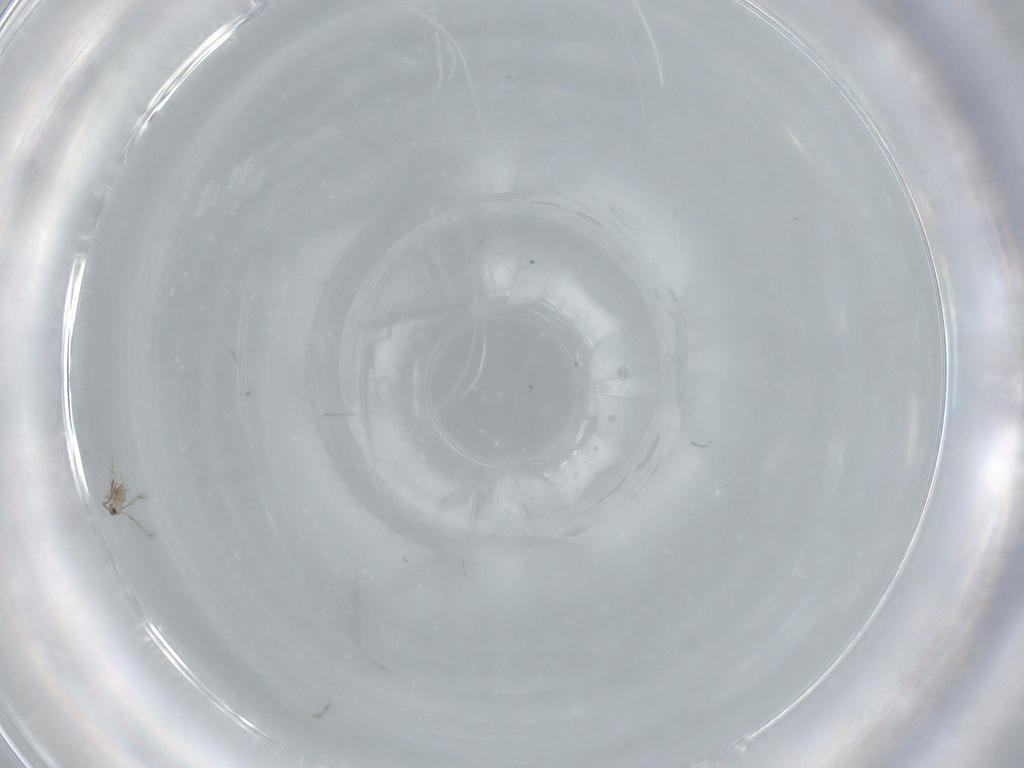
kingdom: Animalia
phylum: Arthropoda
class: Insecta
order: Hymenoptera
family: Mymaridae
